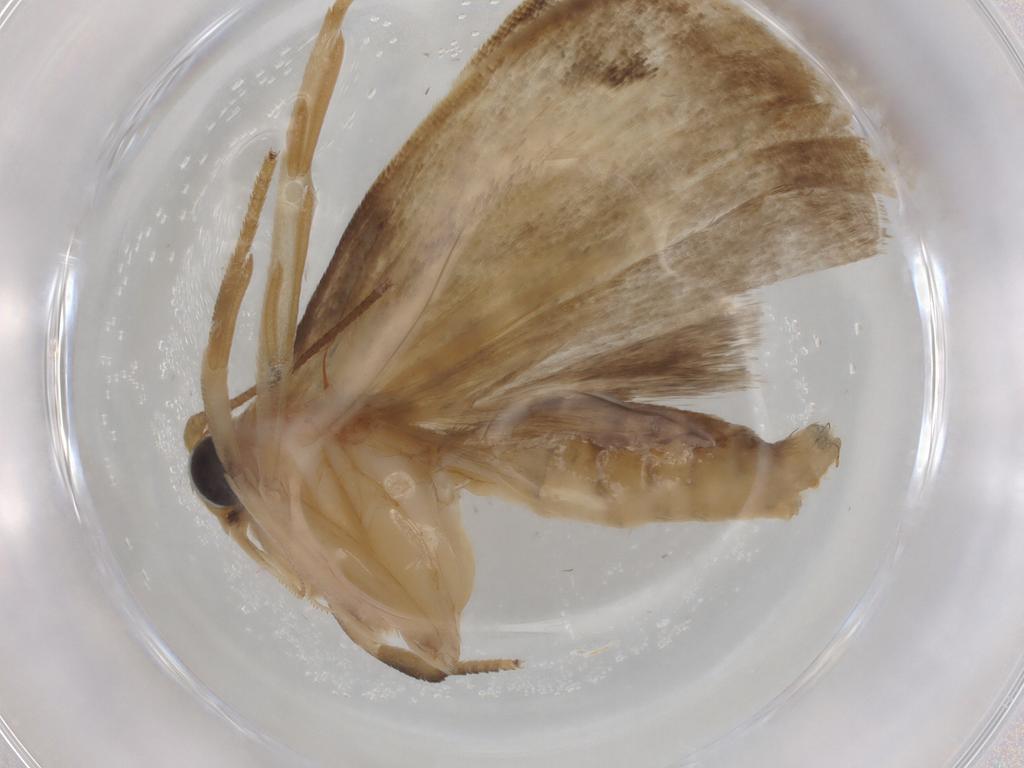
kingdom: Animalia
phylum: Arthropoda
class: Insecta
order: Lepidoptera
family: Depressariidae
